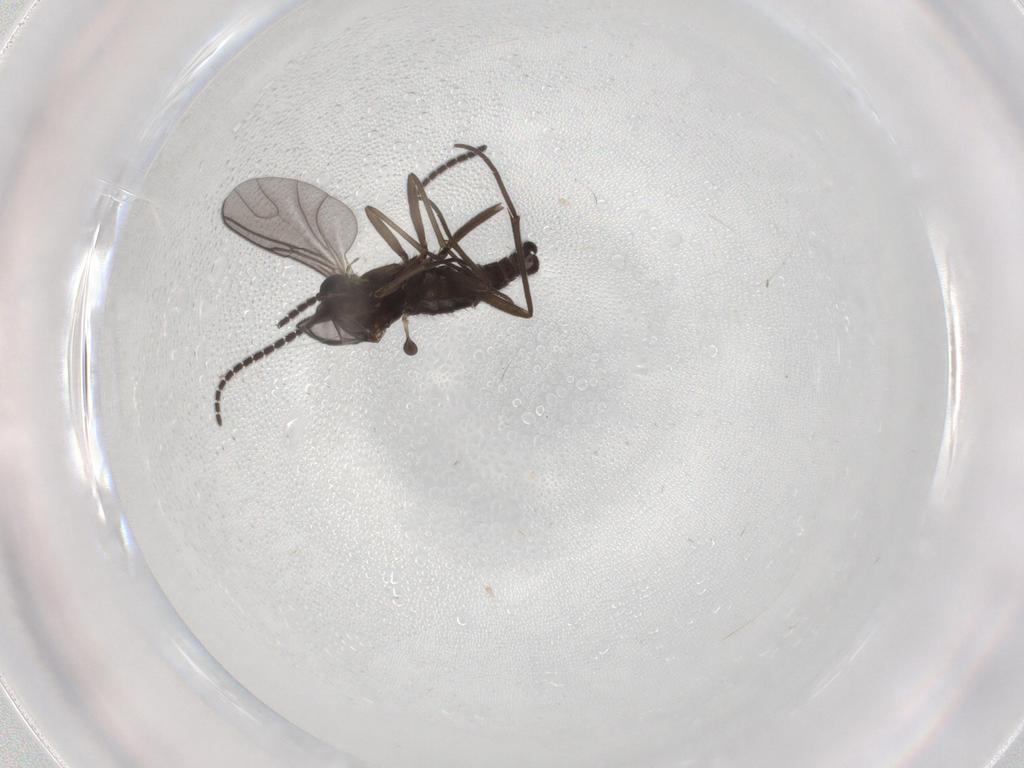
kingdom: Animalia
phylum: Arthropoda
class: Insecta
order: Diptera
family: Sciaridae
